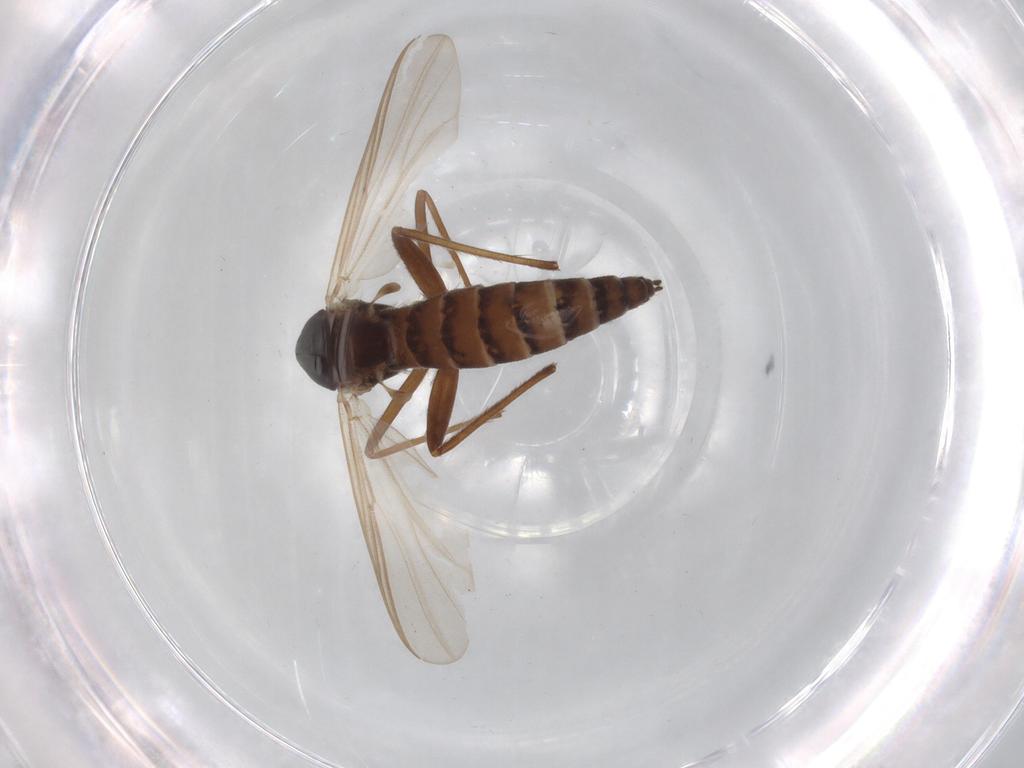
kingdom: Animalia
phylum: Arthropoda
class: Insecta
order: Diptera
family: Chironomidae
